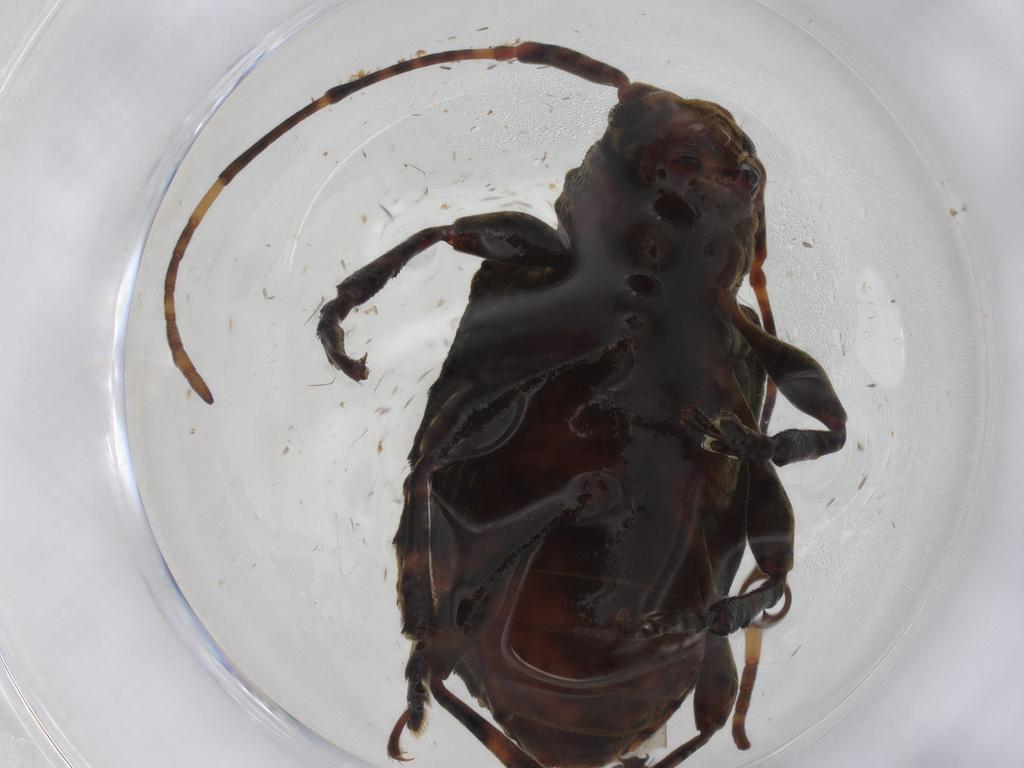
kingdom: Animalia
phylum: Arthropoda
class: Insecta
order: Coleoptera
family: Cerambycidae
